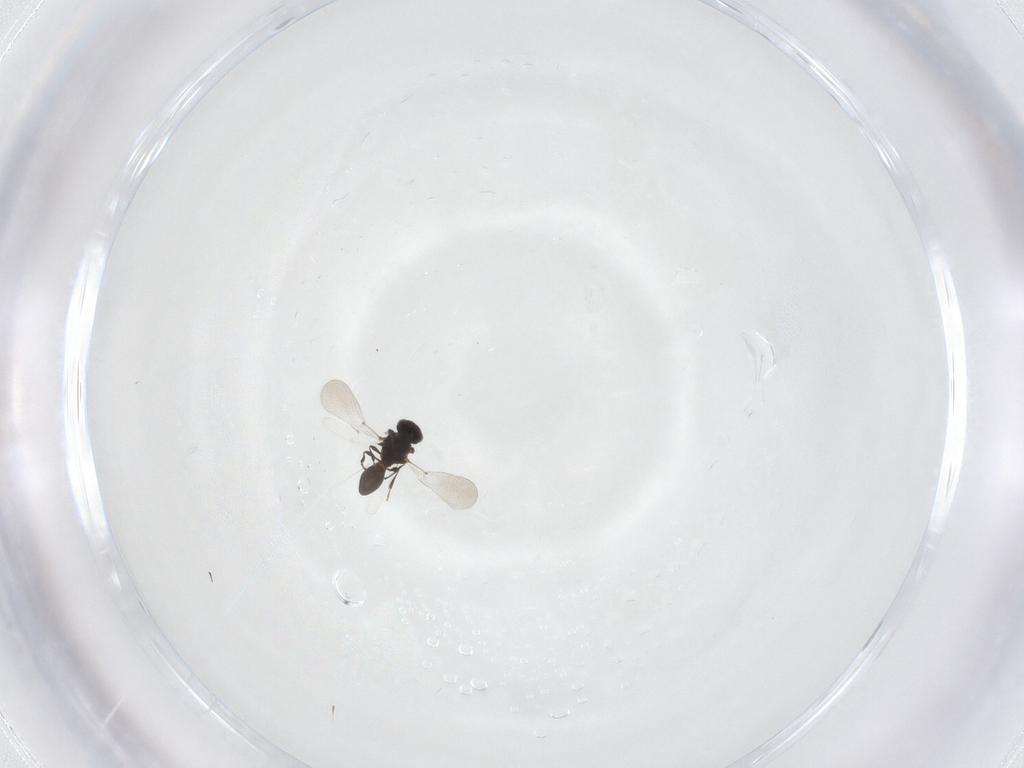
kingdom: Animalia
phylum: Arthropoda
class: Insecta
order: Hymenoptera
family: Platygastridae
